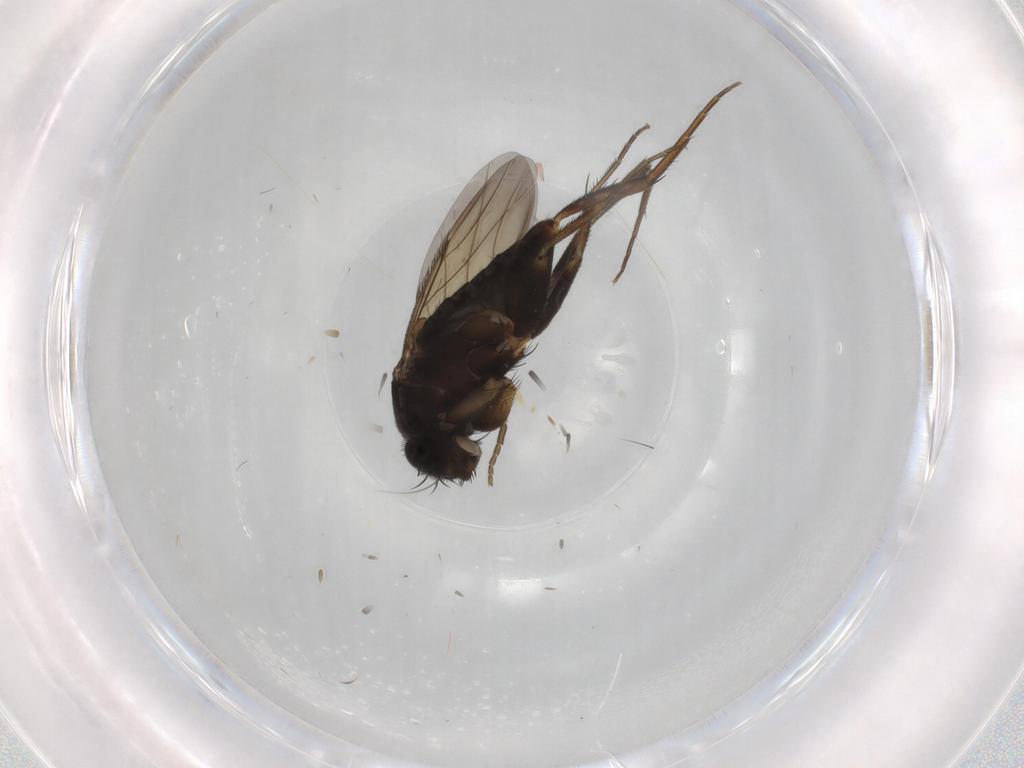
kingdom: Animalia
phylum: Arthropoda
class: Insecta
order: Diptera
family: Phoridae
